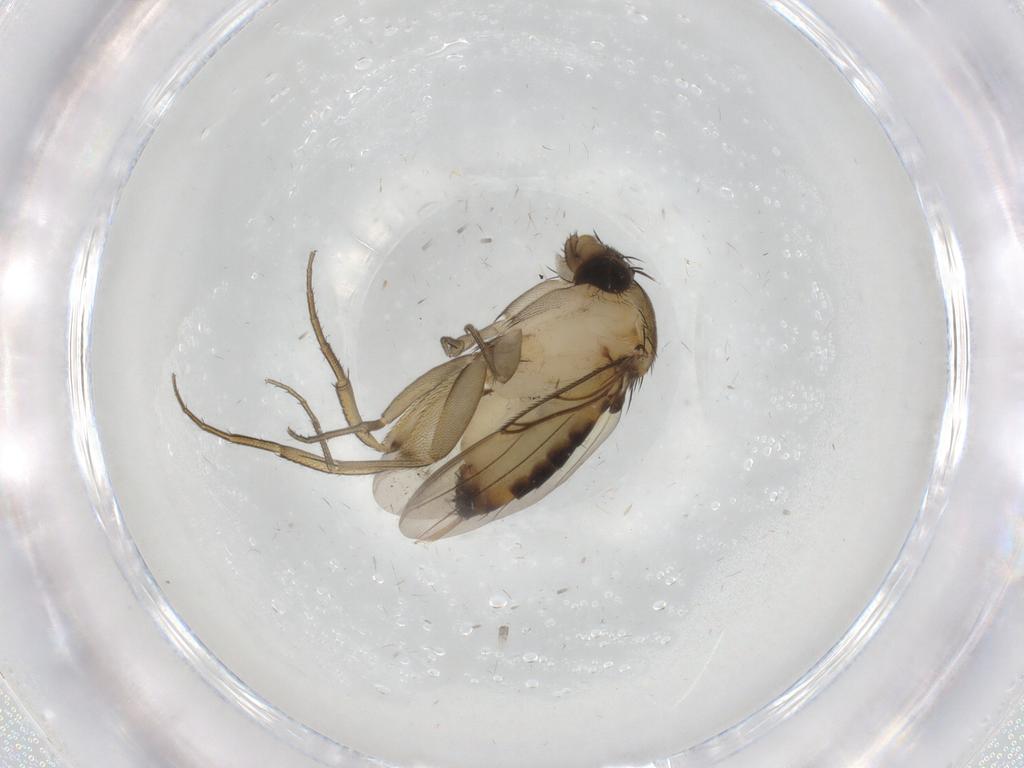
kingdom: Animalia
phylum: Arthropoda
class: Insecta
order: Diptera
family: Phoridae
